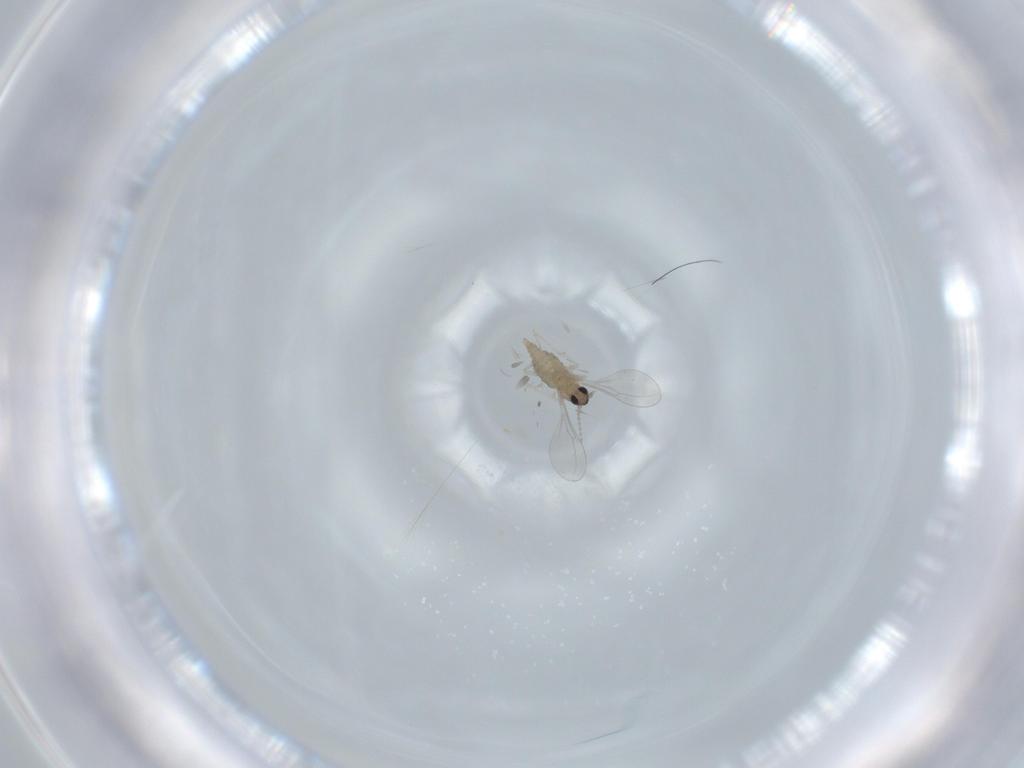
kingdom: Animalia
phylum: Arthropoda
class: Insecta
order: Diptera
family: Cecidomyiidae
